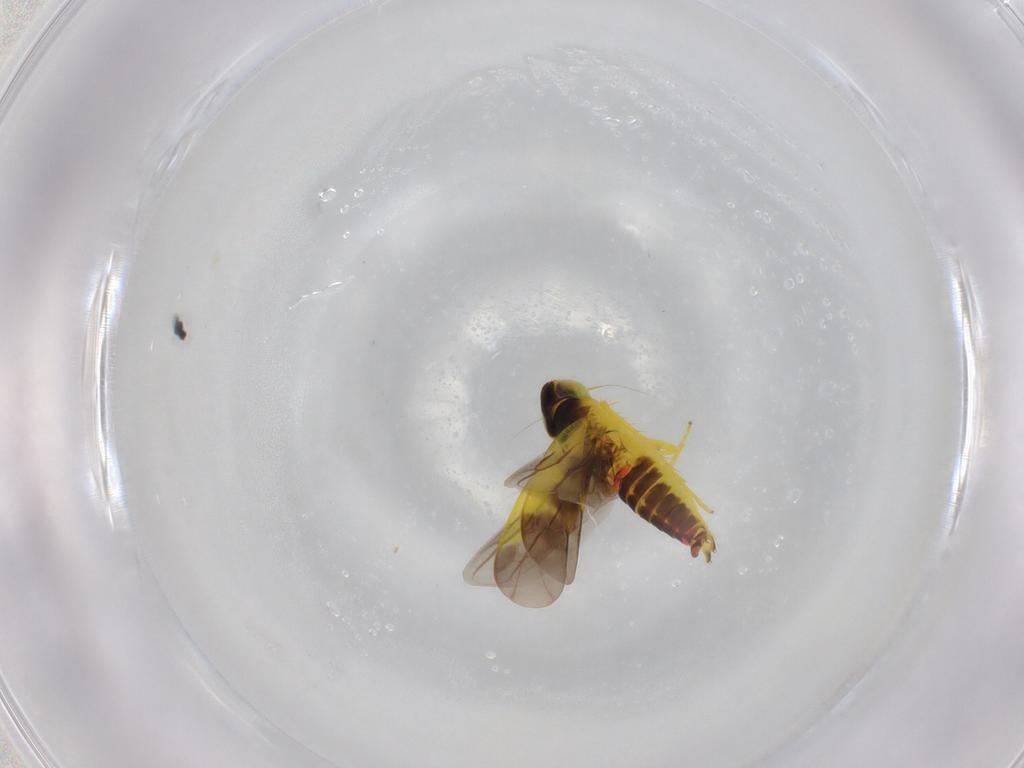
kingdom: Animalia
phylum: Arthropoda
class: Insecta
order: Hemiptera
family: Cicadellidae
